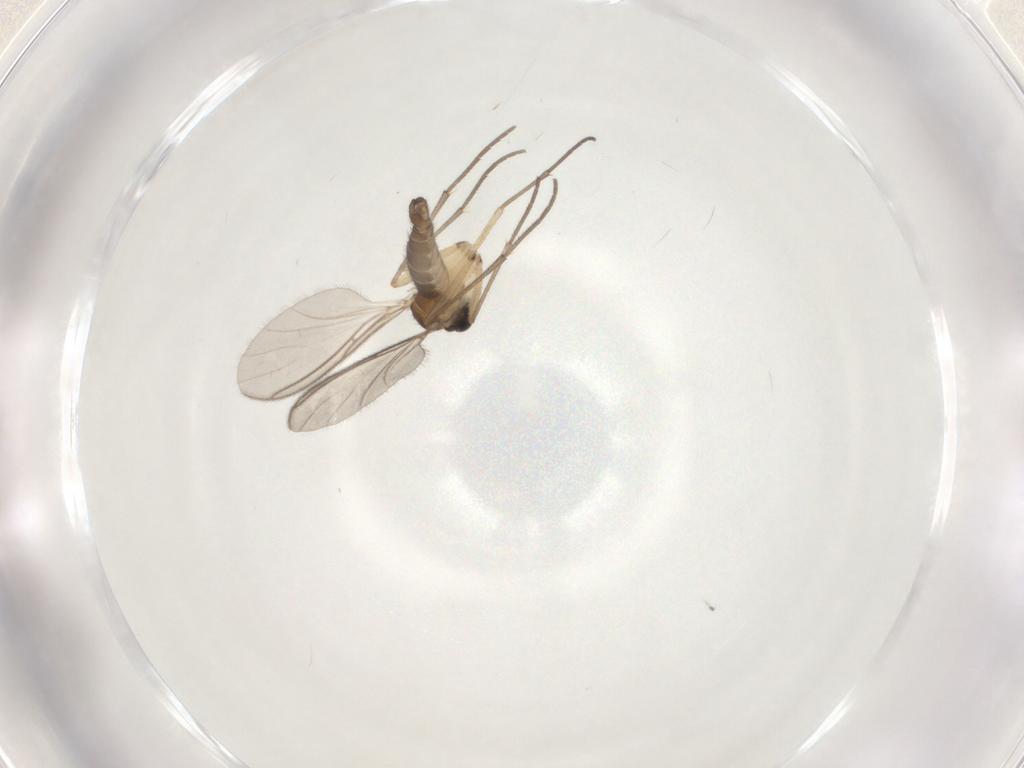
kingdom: Animalia
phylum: Arthropoda
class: Insecta
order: Diptera
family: Sciaridae
